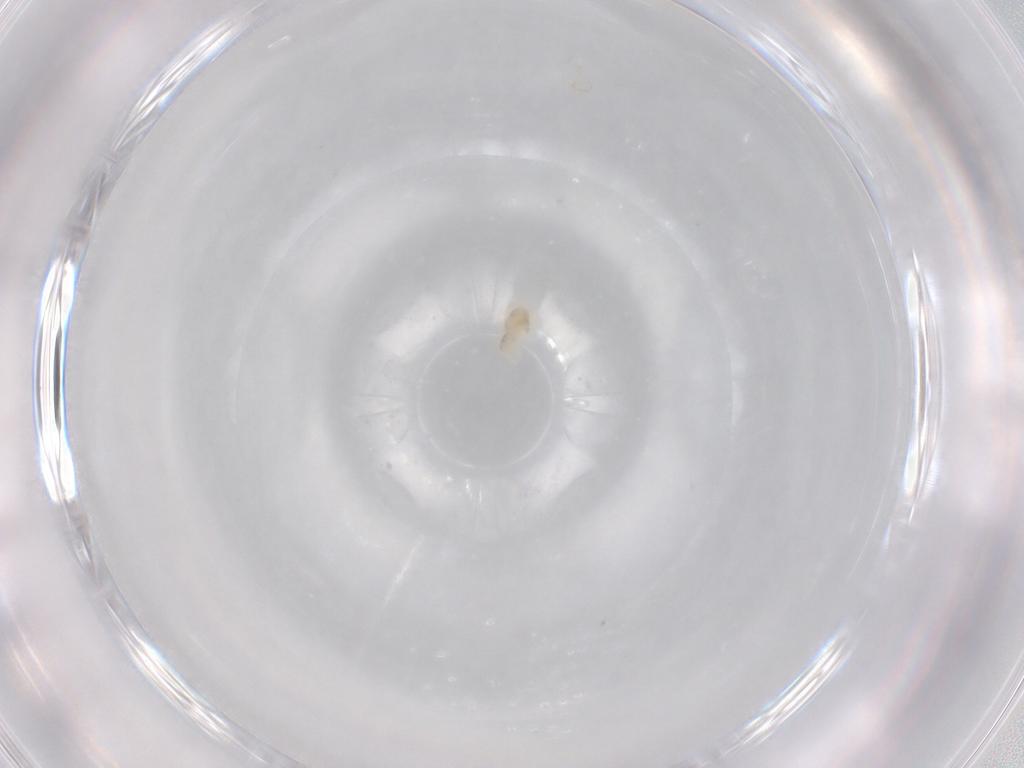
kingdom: Animalia
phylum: Arthropoda
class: Arachnida
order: Trombidiformes
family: Eupodidae
